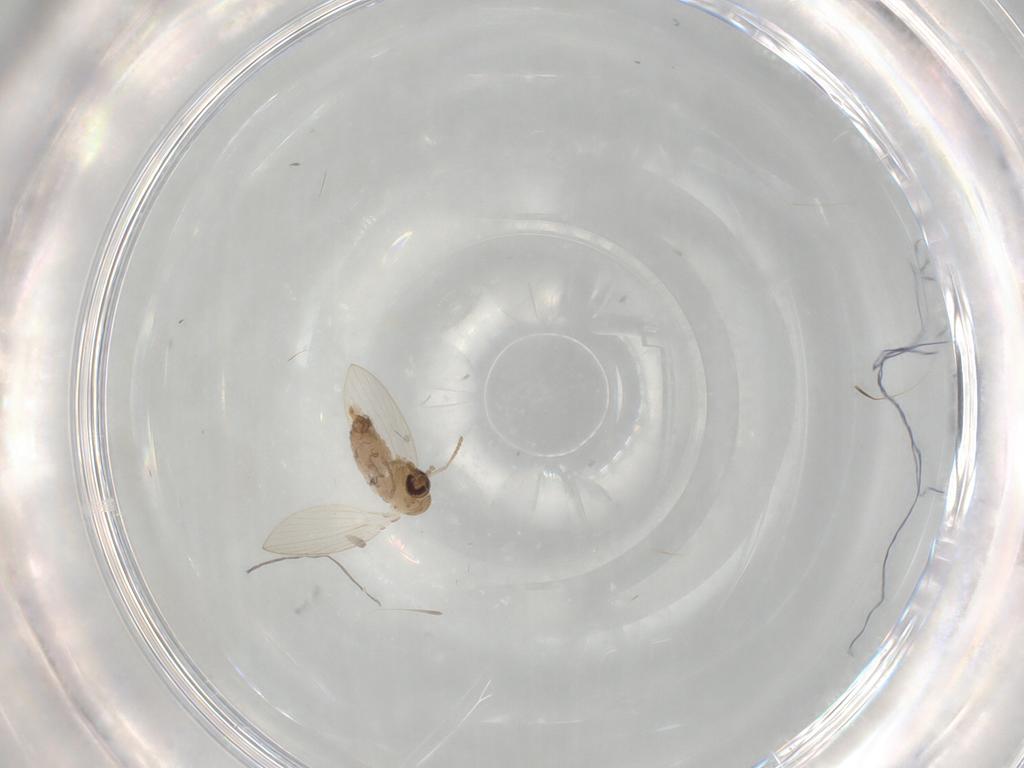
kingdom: Animalia
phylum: Arthropoda
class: Insecta
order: Diptera
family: Psychodidae
